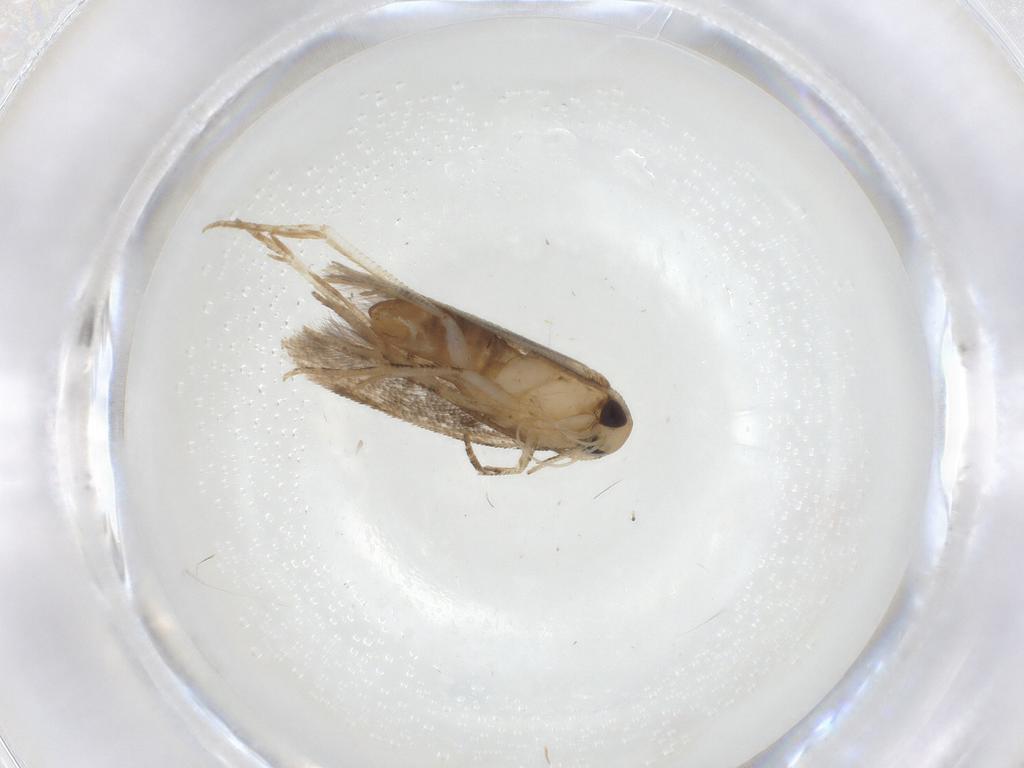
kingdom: Animalia
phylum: Arthropoda
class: Insecta
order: Lepidoptera
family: Cosmopterigidae
